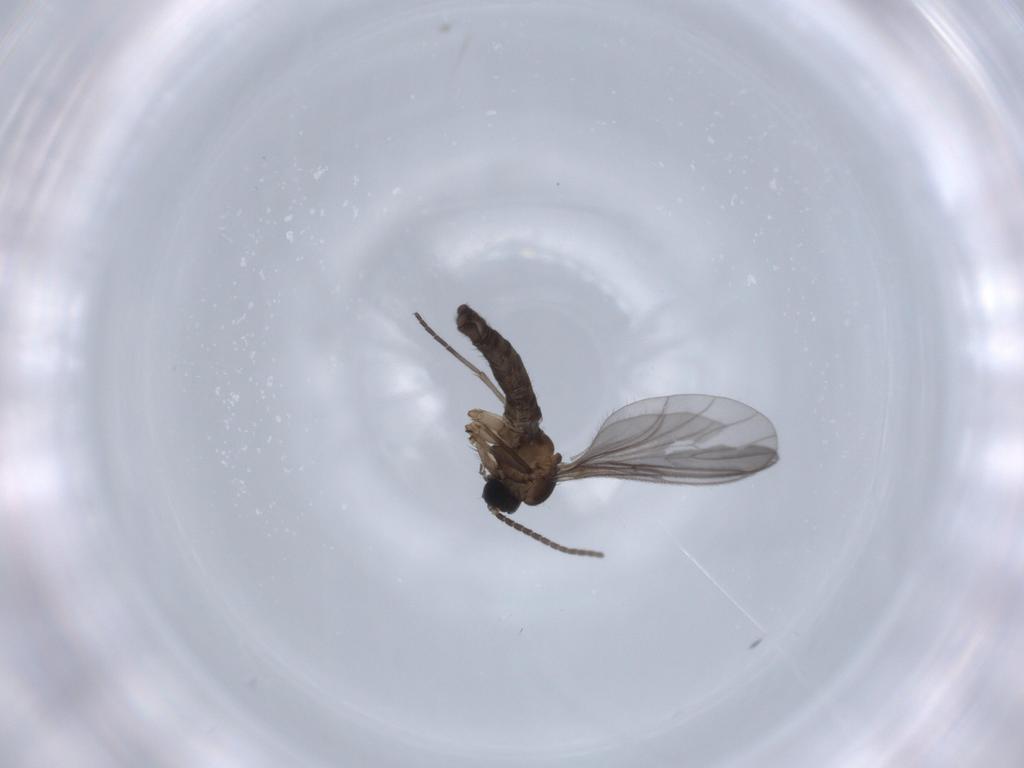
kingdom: Animalia
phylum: Arthropoda
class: Insecta
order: Diptera
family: Sciaridae
